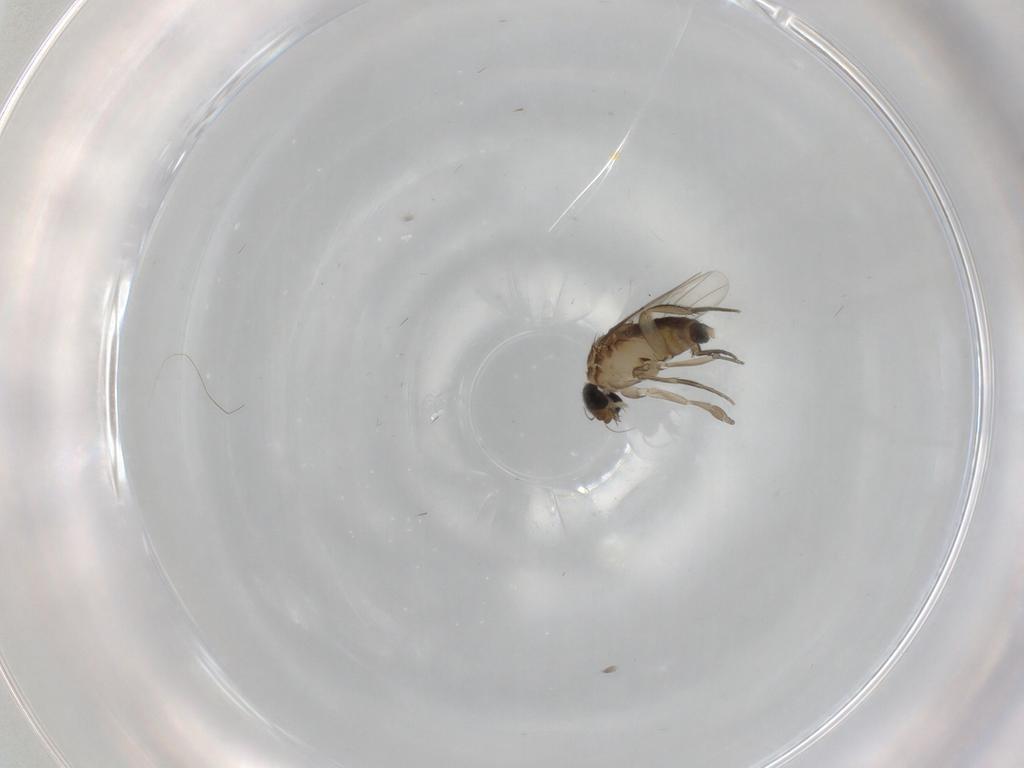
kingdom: Animalia
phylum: Arthropoda
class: Insecta
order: Diptera
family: Phoridae
